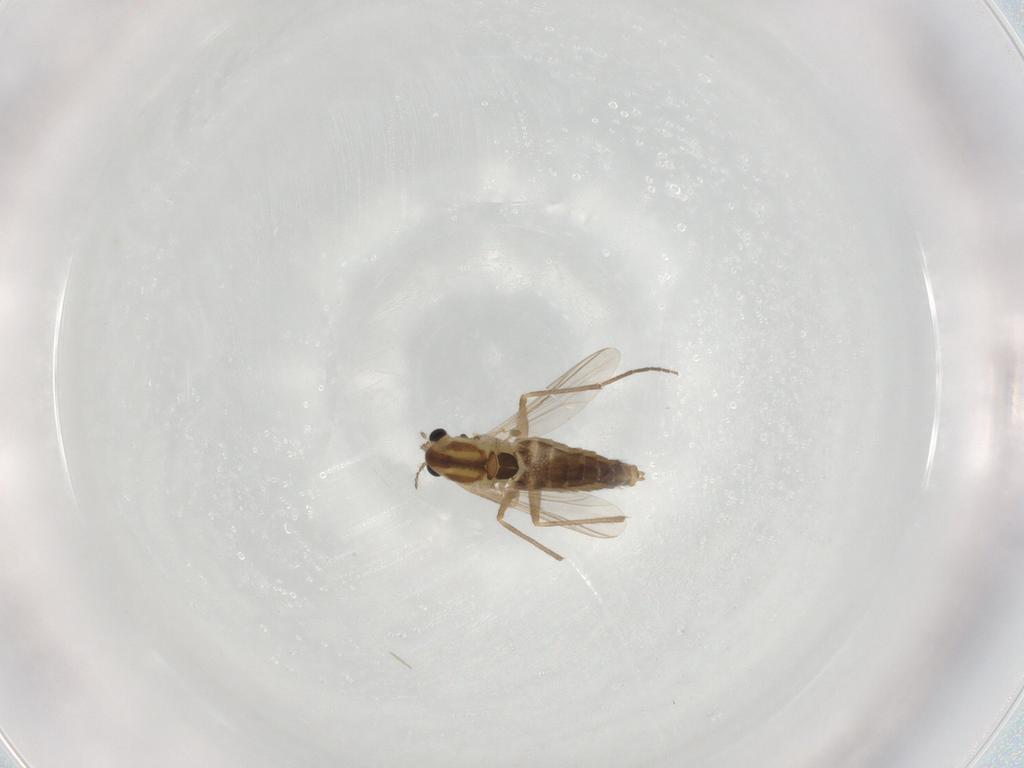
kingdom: Animalia
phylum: Arthropoda
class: Insecta
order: Diptera
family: Chironomidae
